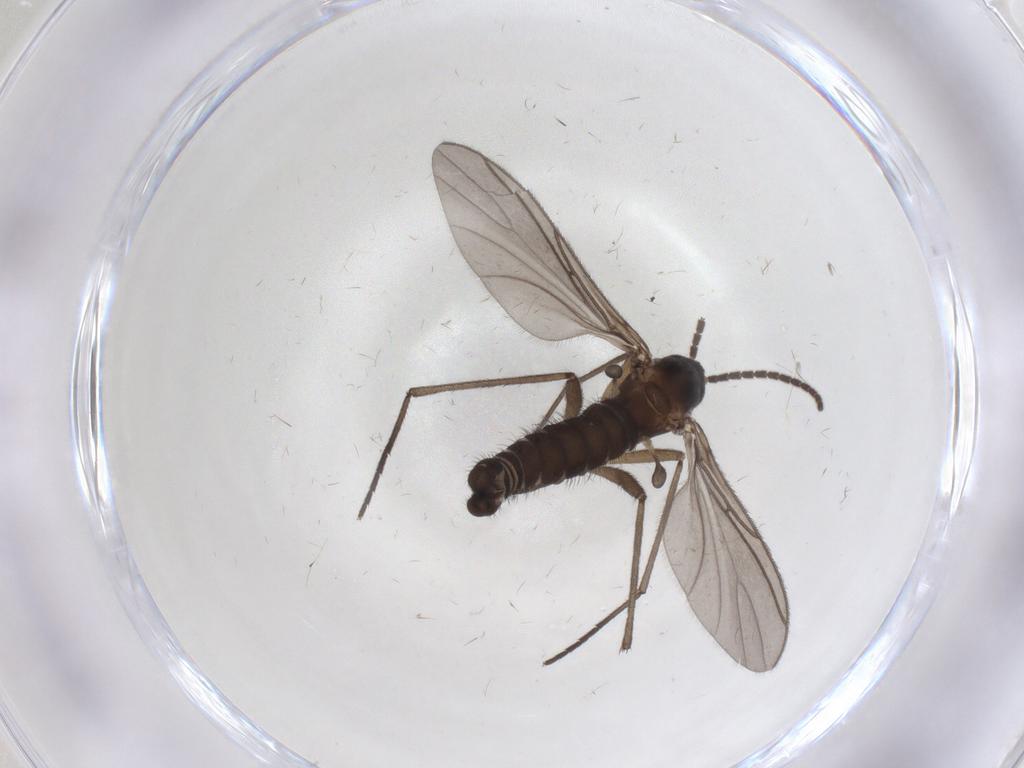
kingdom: Animalia
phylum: Arthropoda
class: Insecta
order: Diptera
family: Sciaridae
